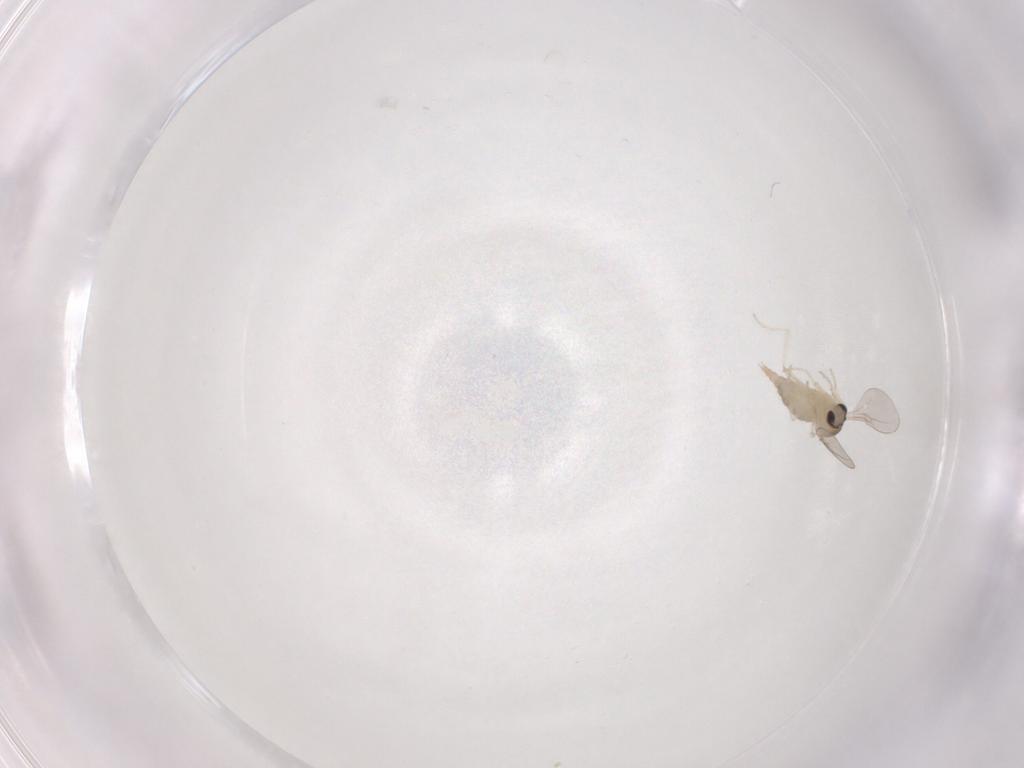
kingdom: Animalia
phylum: Arthropoda
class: Insecta
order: Diptera
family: Cecidomyiidae
